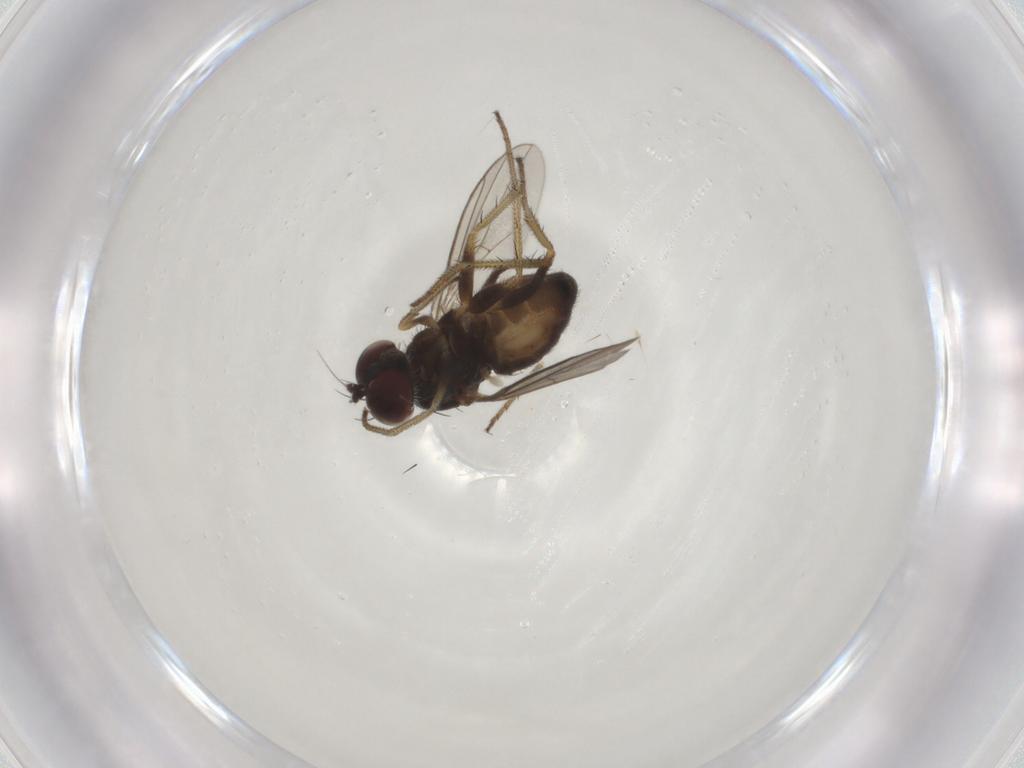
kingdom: Animalia
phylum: Arthropoda
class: Insecta
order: Diptera
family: Dolichopodidae
